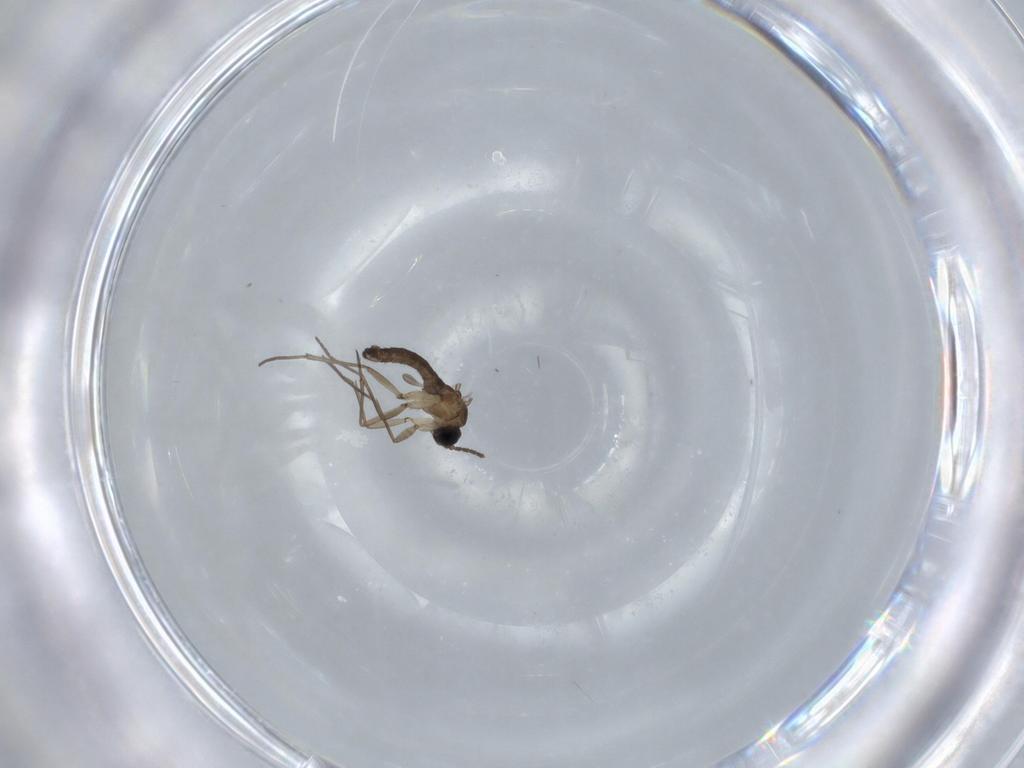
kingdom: Animalia
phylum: Arthropoda
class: Insecta
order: Diptera
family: Sciaridae
